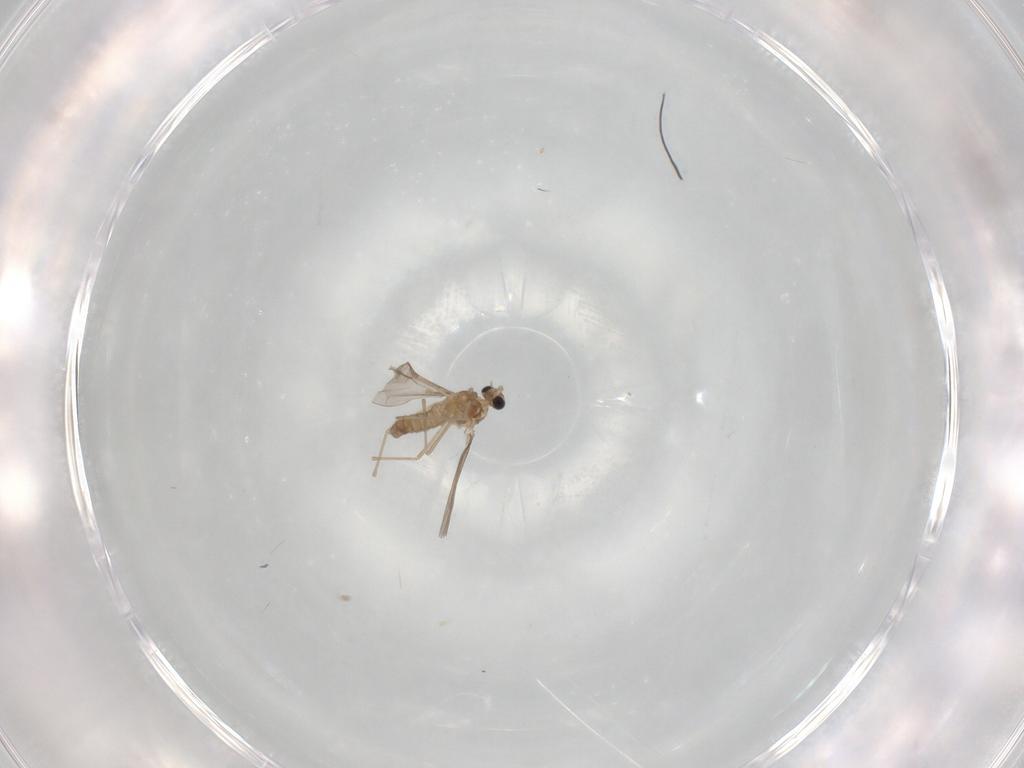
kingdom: Animalia
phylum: Arthropoda
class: Insecta
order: Diptera
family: Cecidomyiidae
